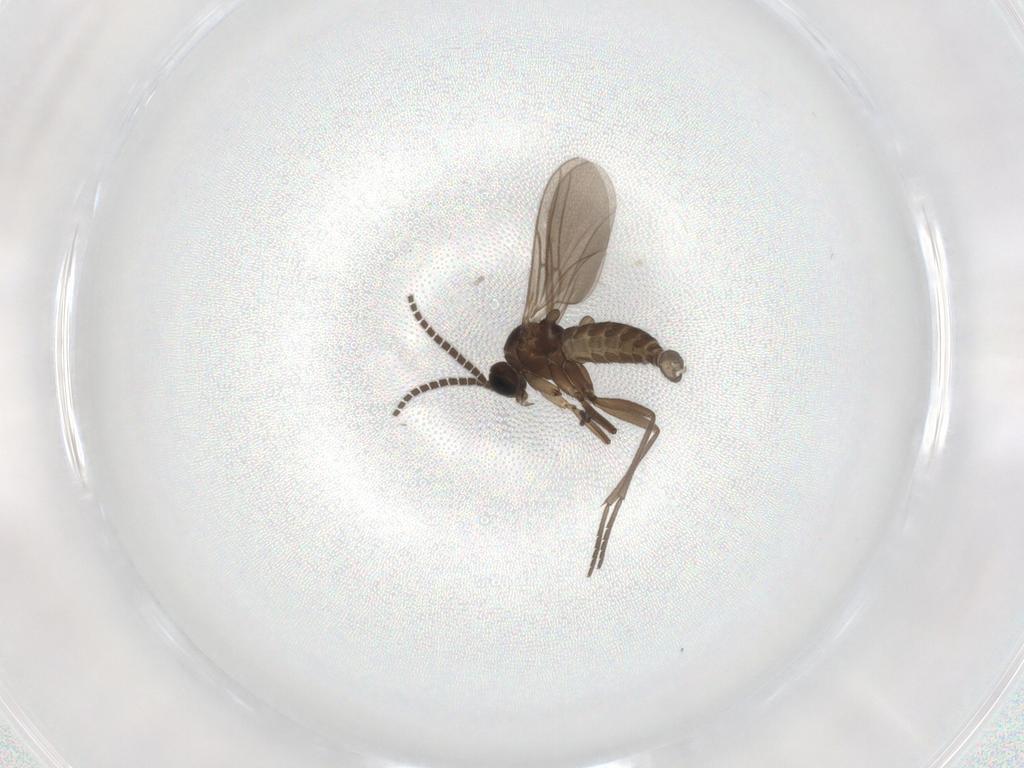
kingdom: Animalia
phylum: Arthropoda
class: Insecta
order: Diptera
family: Sciaridae
